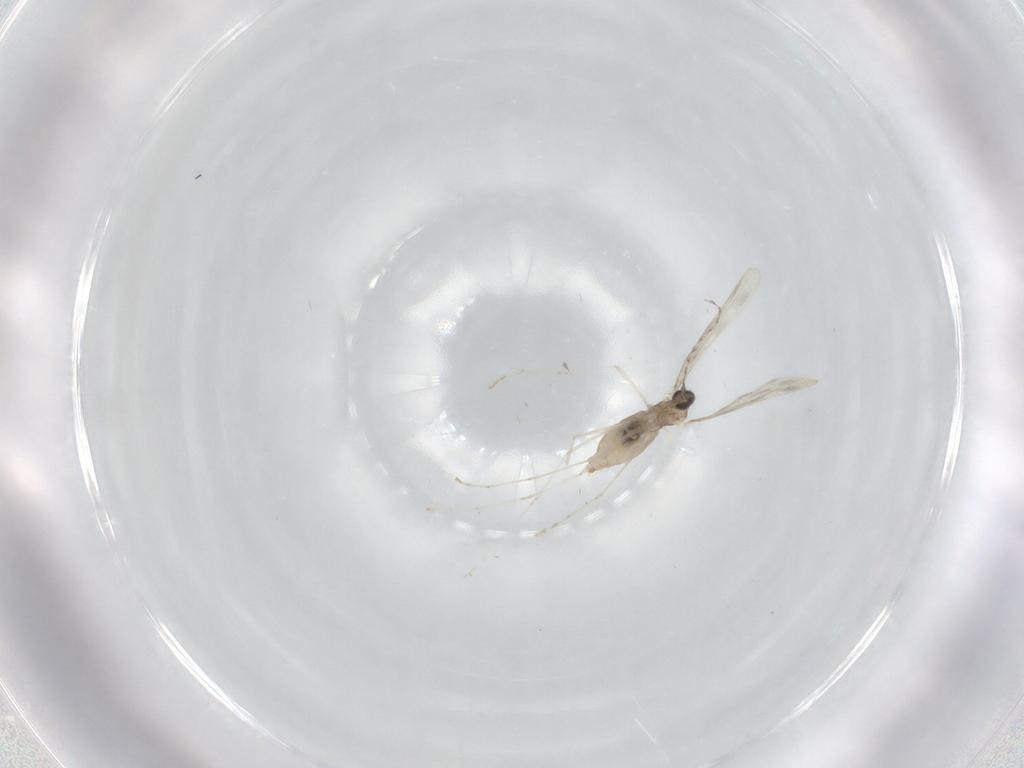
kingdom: Animalia
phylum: Arthropoda
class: Insecta
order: Diptera
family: Cecidomyiidae
